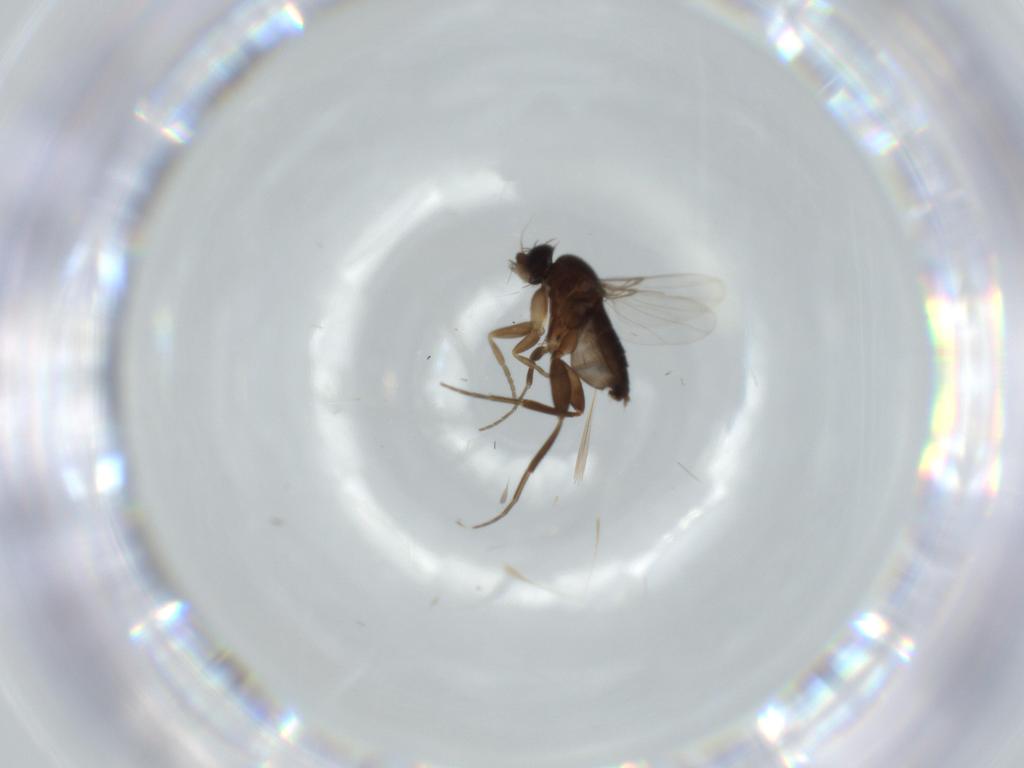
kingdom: Animalia
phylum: Arthropoda
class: Insecta
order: Diptera
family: Phoridae
